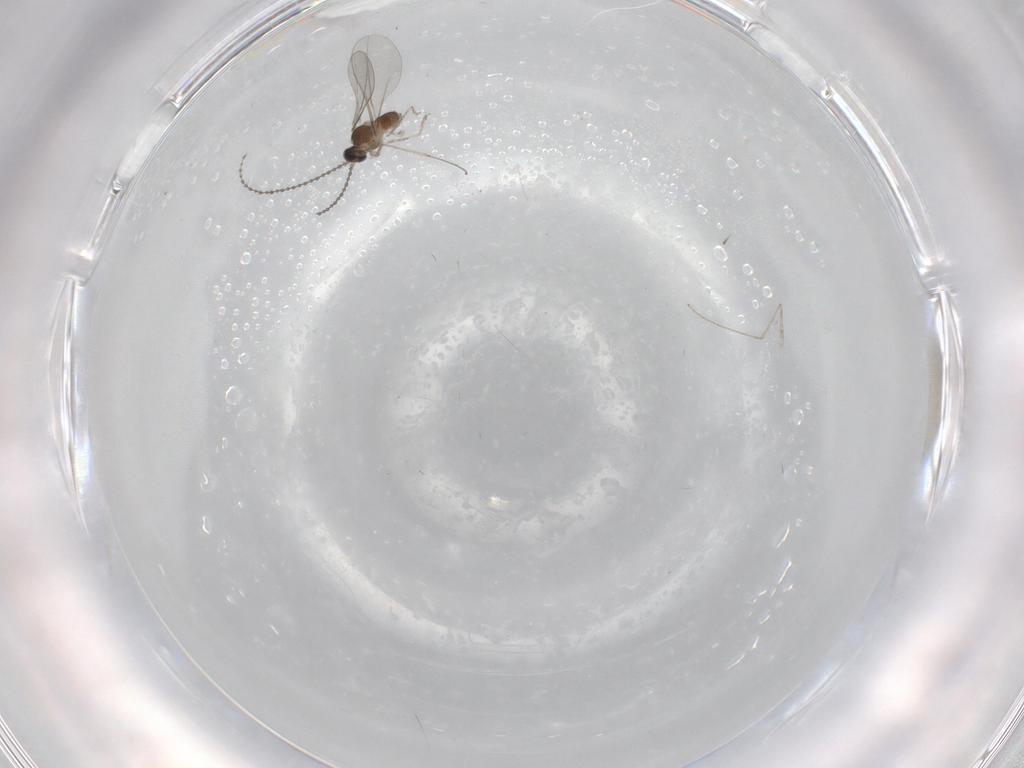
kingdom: Animalia
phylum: Arthropoda
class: Insecta
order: Diptera
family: Cecidomyiidae
